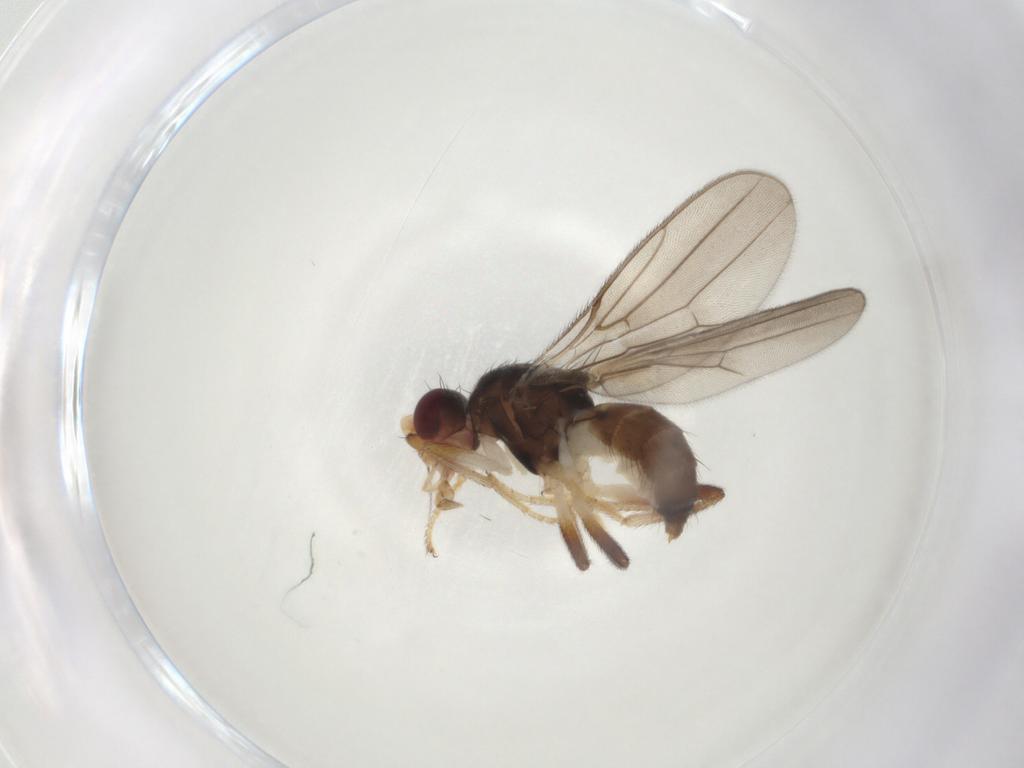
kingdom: Animalia
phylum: Arthropoda
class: Insecta
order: Diptera
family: Chloropidae
